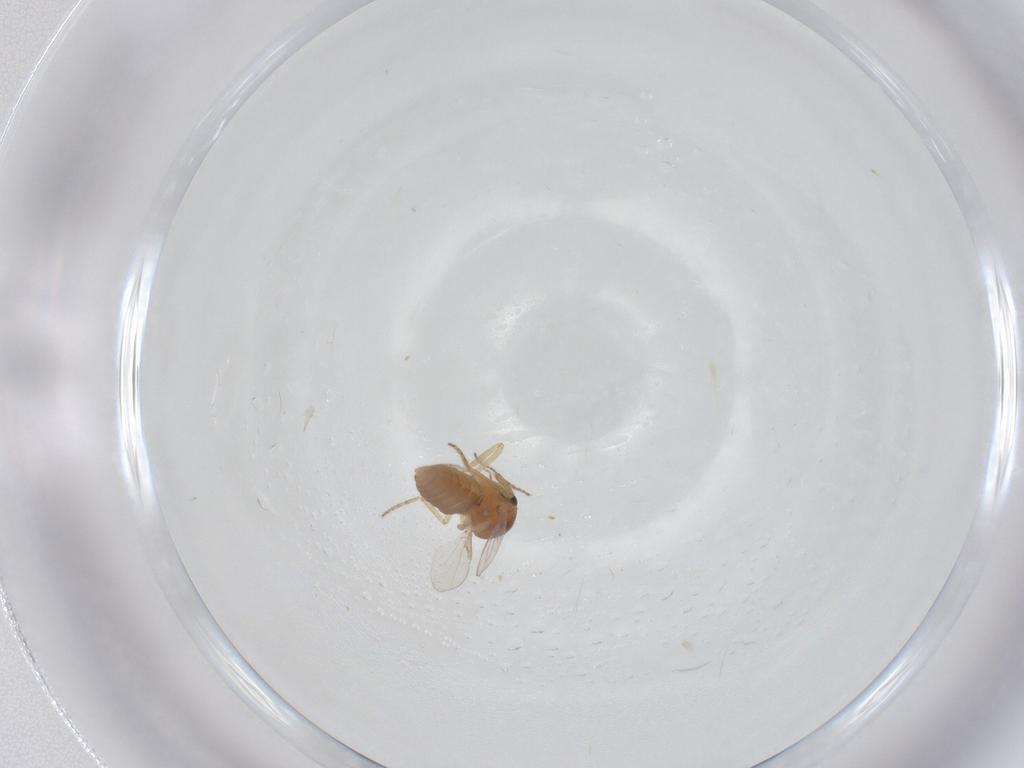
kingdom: Animalia
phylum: Arthropoda
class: Insecta
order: Diptera
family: Ceratopogonidae
